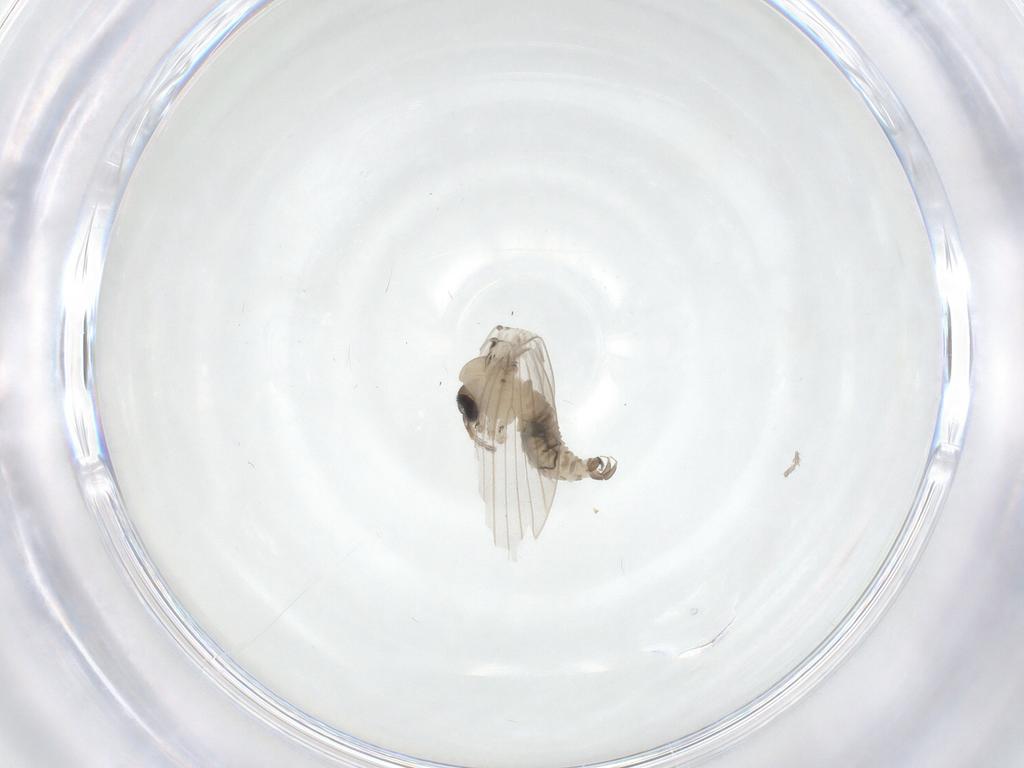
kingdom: Animalia
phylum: Arthropoda
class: Insecta
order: Diptera
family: Psychodidae
